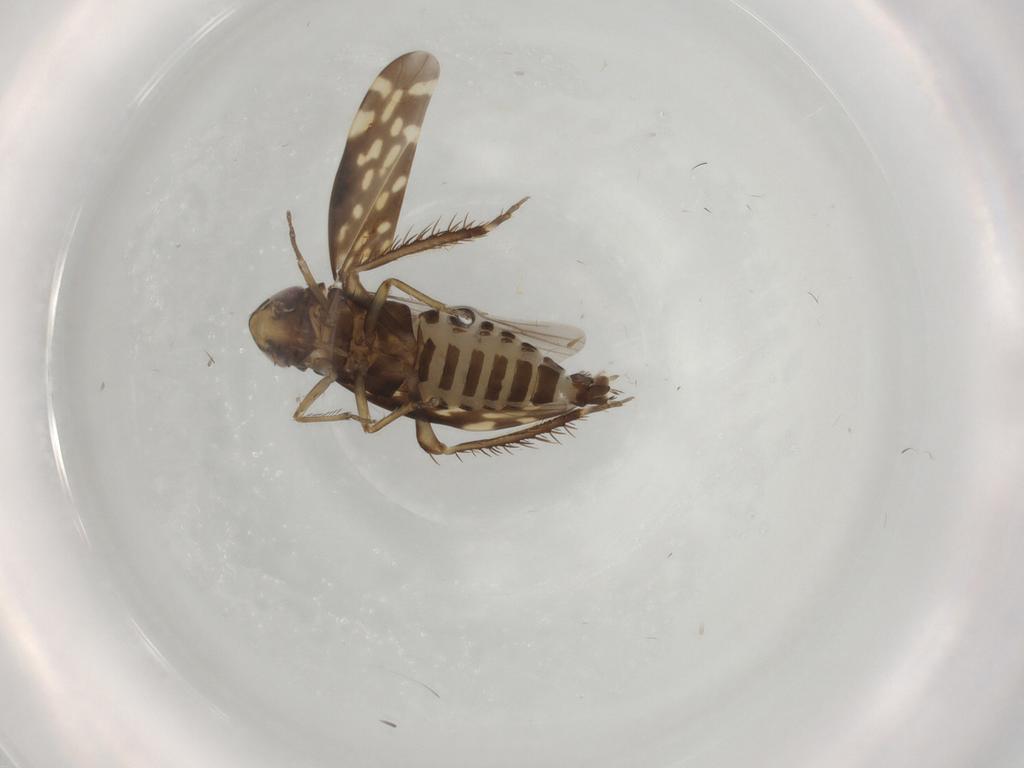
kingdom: Animalia
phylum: Arthropoda
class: Insecta
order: Hemiptera
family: Cicadellidae
